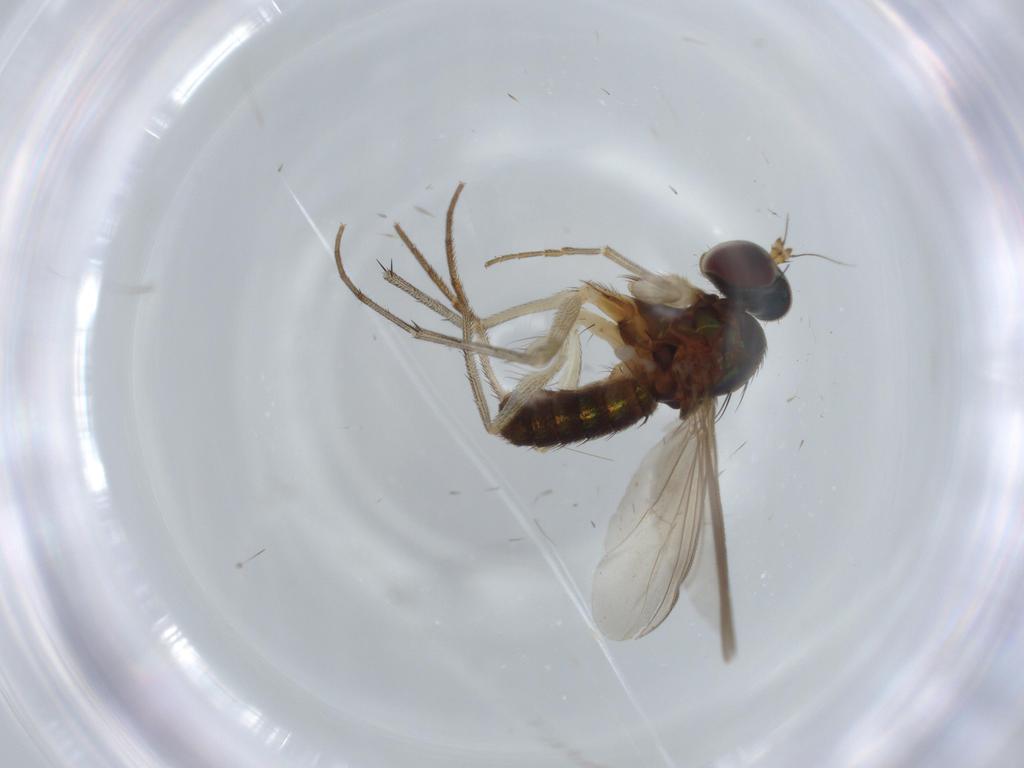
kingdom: Animalia
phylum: Arthropoda
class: Insecta
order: Diptera
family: Dolichopodidae
